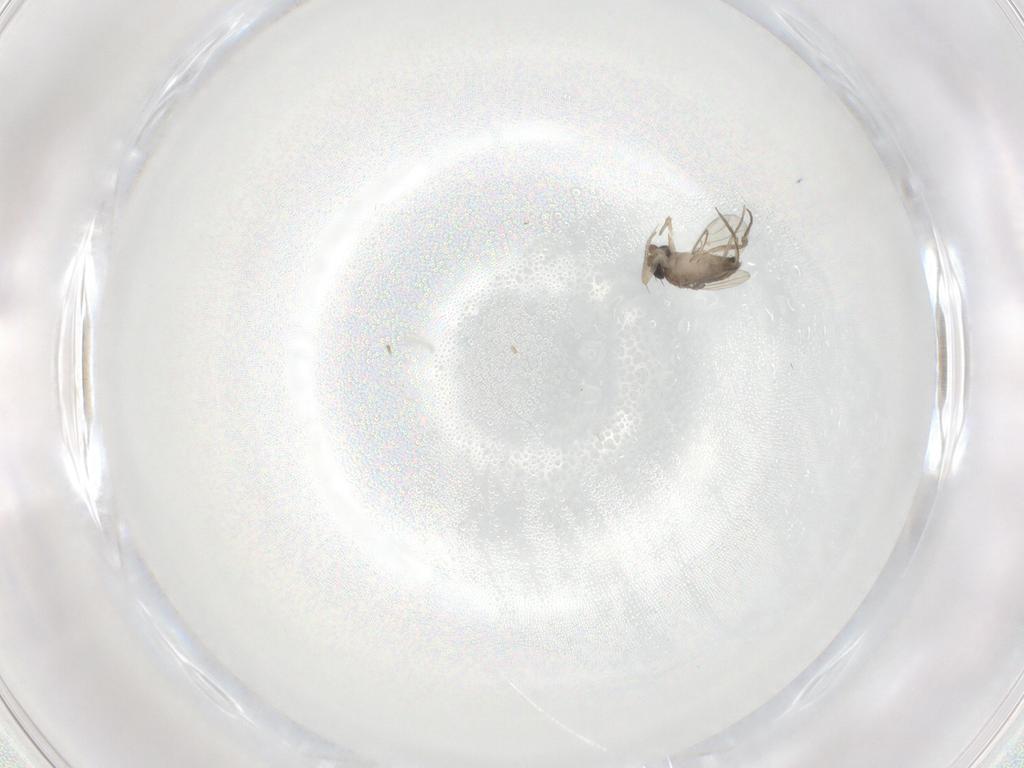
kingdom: Animalia
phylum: Arthropoda
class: Insecta
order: Diptera
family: Phoridae
